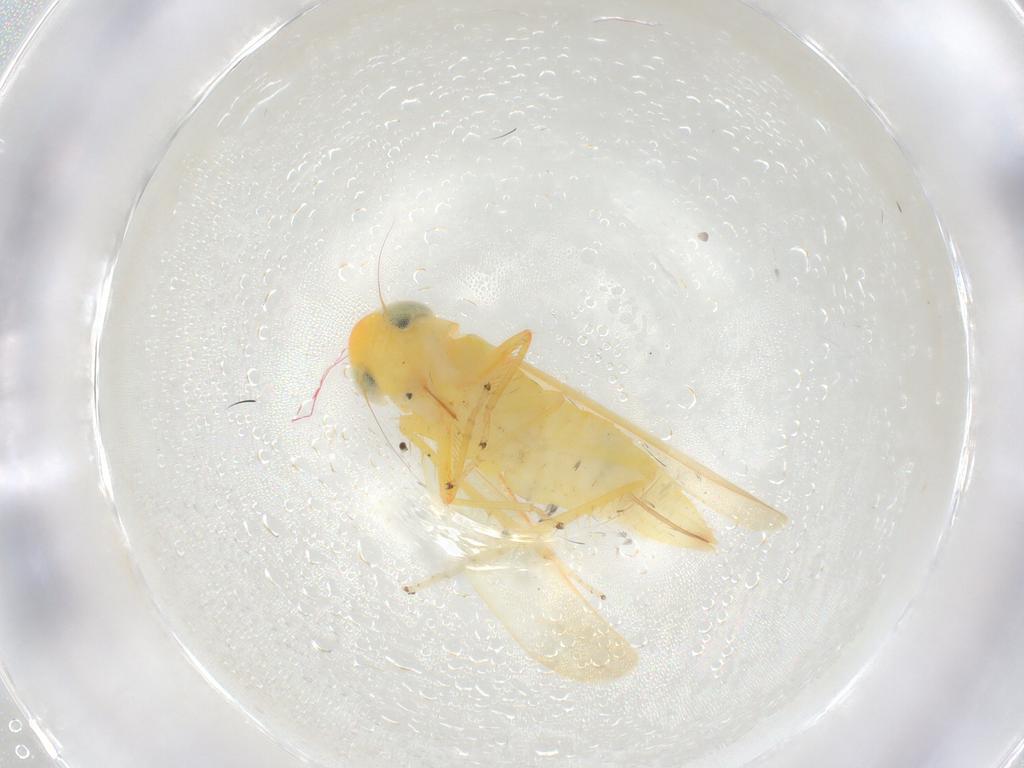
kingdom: Animalia
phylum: Arthropoda
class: Insecta
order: Hymenoptera
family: Dryinidae
